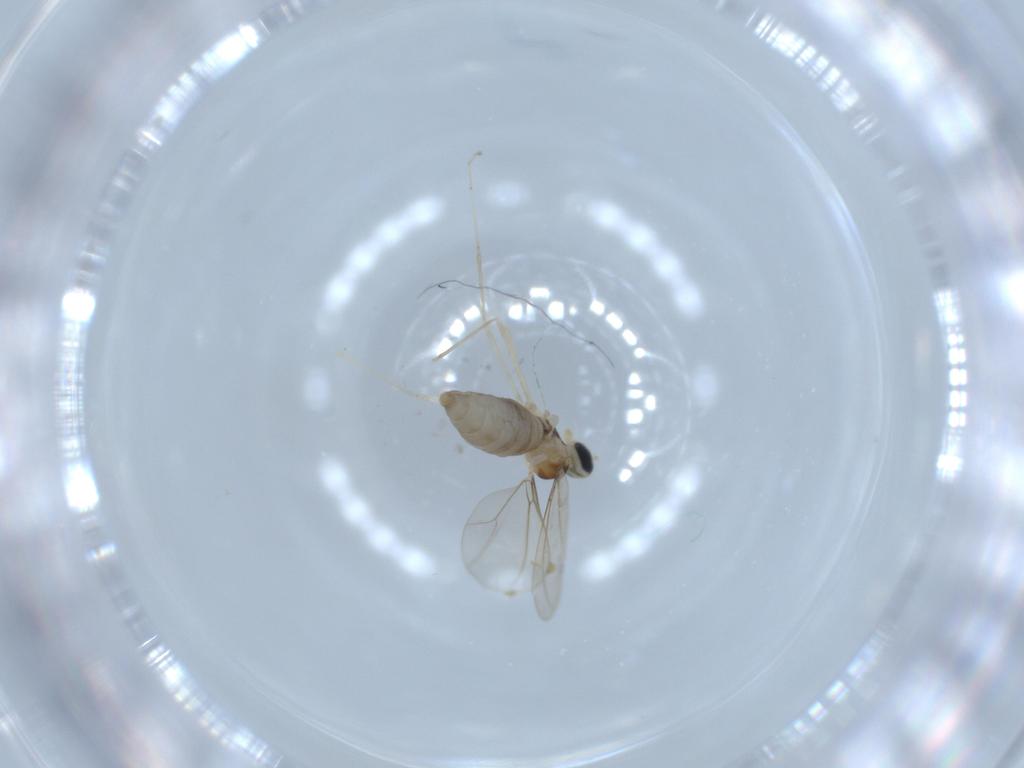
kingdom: Animalia
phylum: Arthropoda
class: Insecta
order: Diptera
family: Cecidomyiidae
